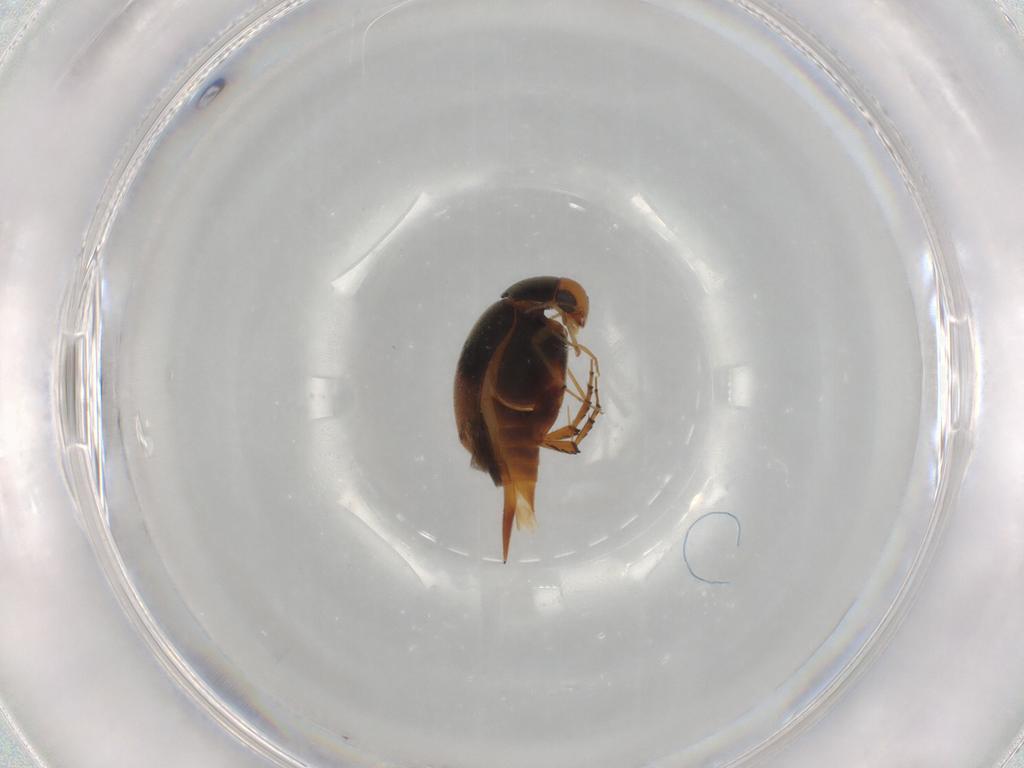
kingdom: Animalia
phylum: Arthropoda
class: Insecta
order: Coleoptera
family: Mordellidae
